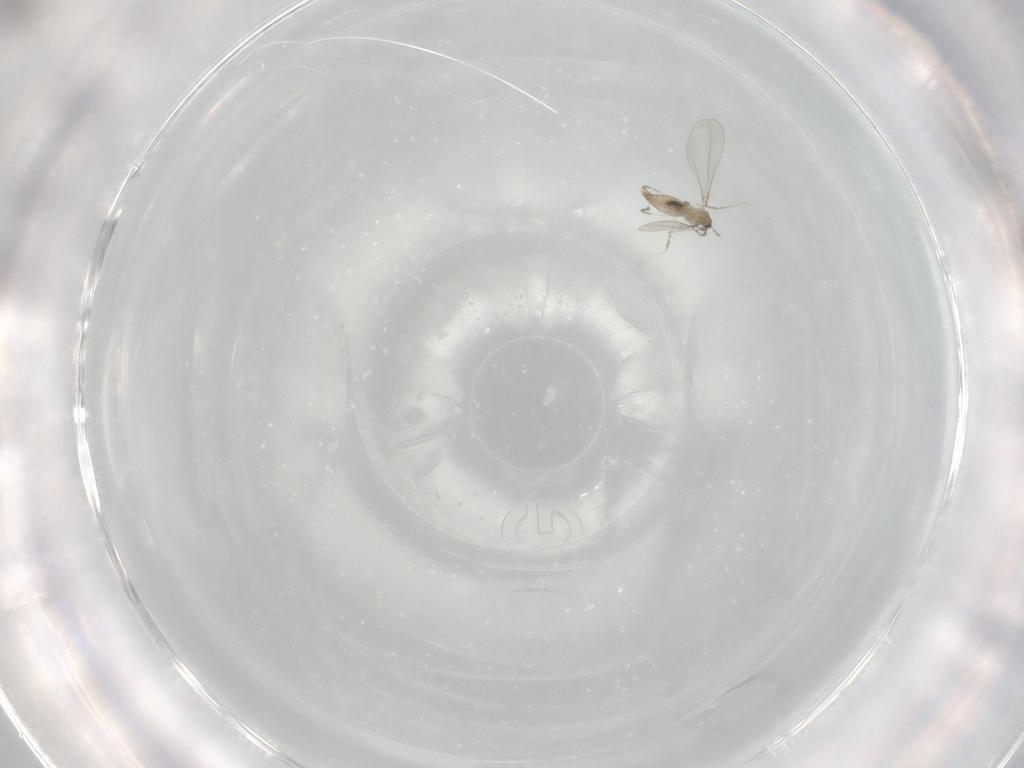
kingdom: Animalia
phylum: Arthropoda
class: Insecta
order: Diptera
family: Cecidomyiidae
